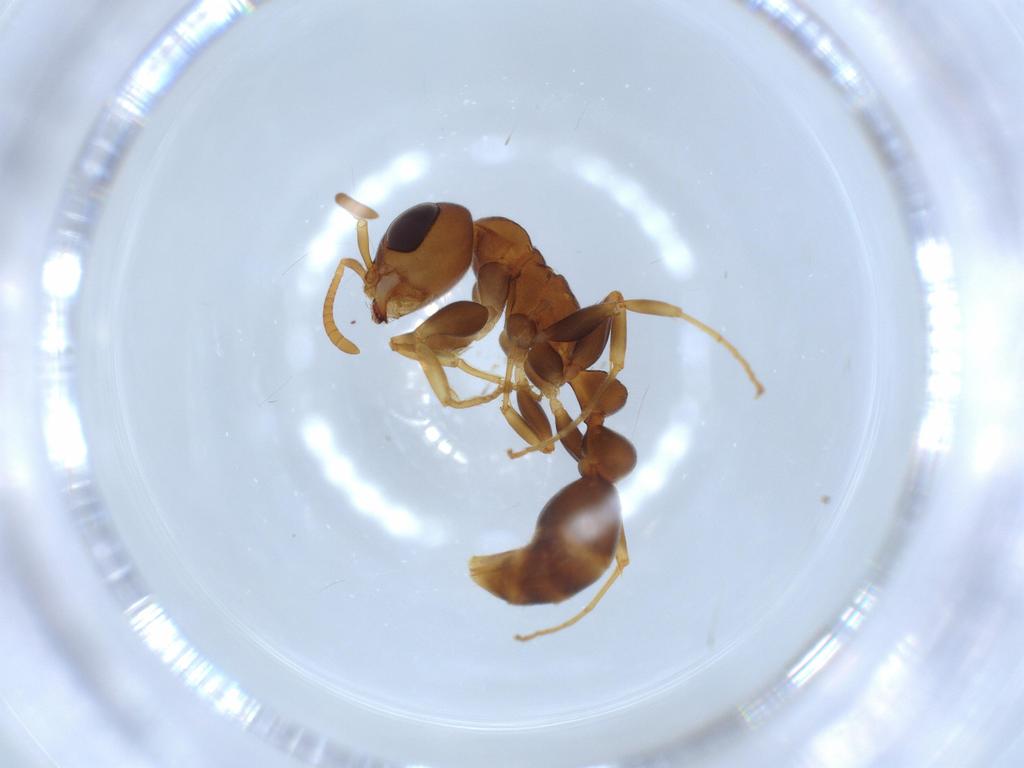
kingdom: Animalia
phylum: Arthropoda
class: Insecta
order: Hymenoptera
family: Formicidae
